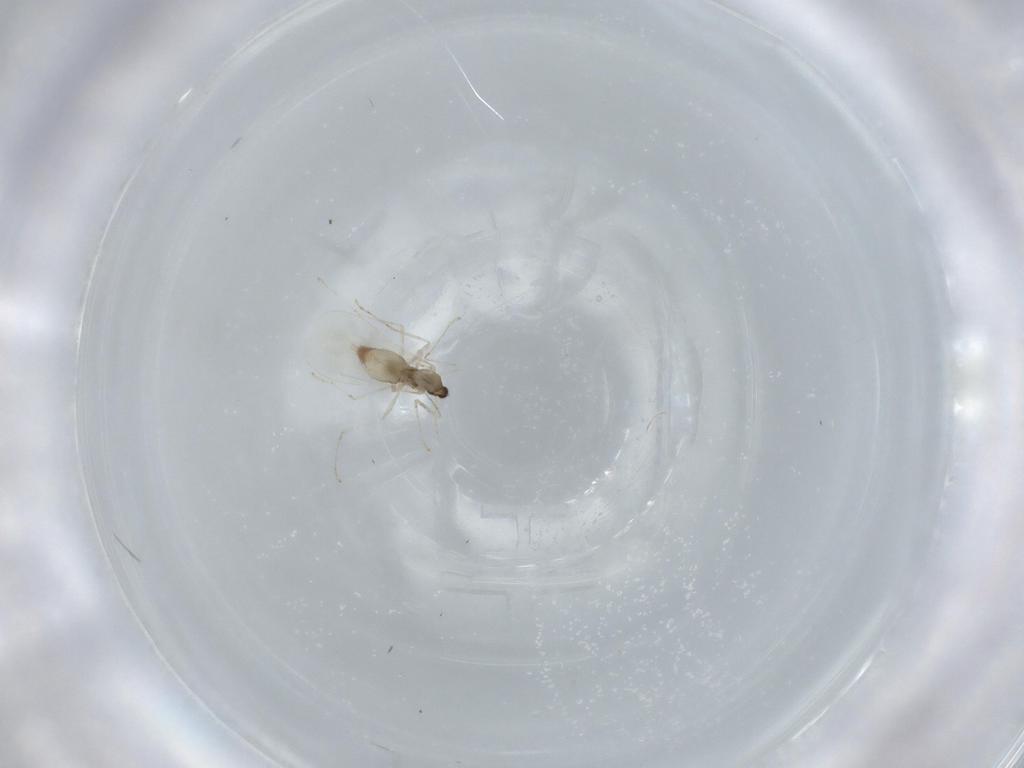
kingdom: Animalia
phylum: Arthropoda
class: Insecta
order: Diptera
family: Cecidomyiidae
